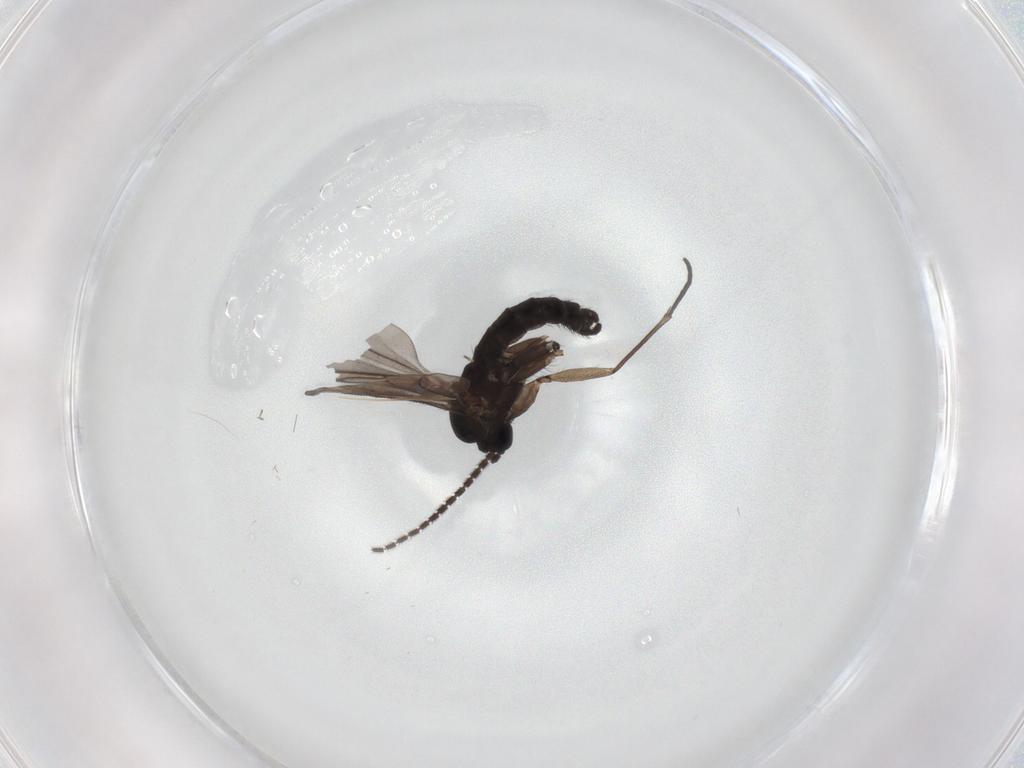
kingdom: Animalia
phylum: Arthropoda
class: Insecta
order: Diptera
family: Sciaridae
